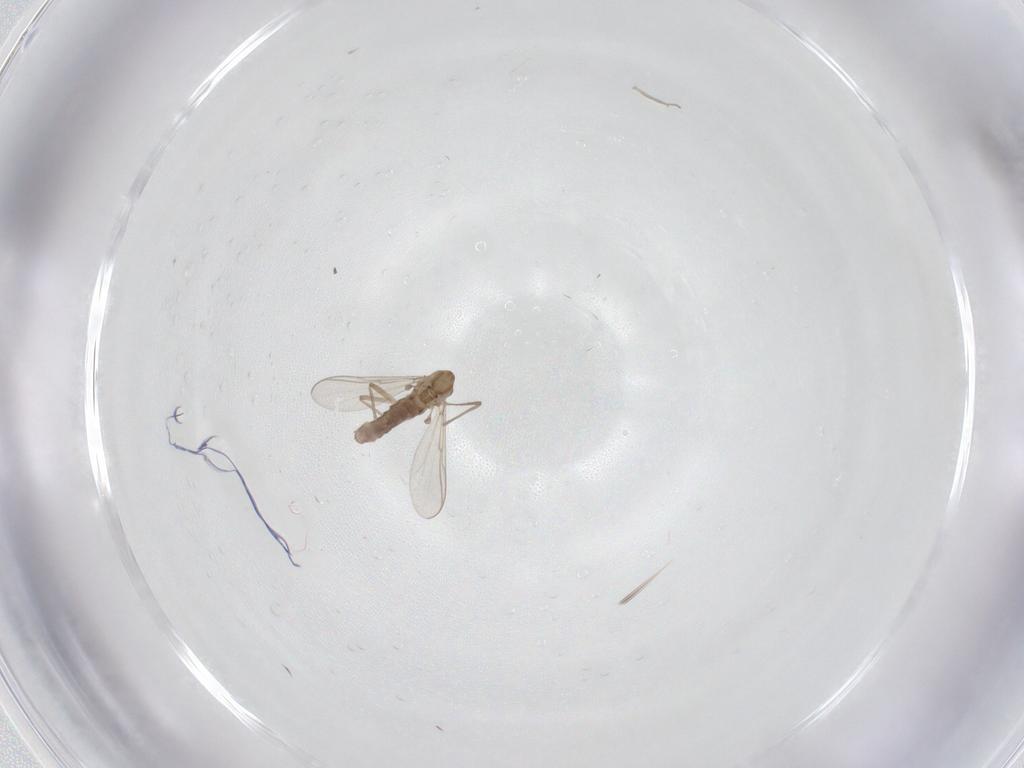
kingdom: Animalia
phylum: Arthropoda
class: Insecta
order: Diptera
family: Chironomidae
